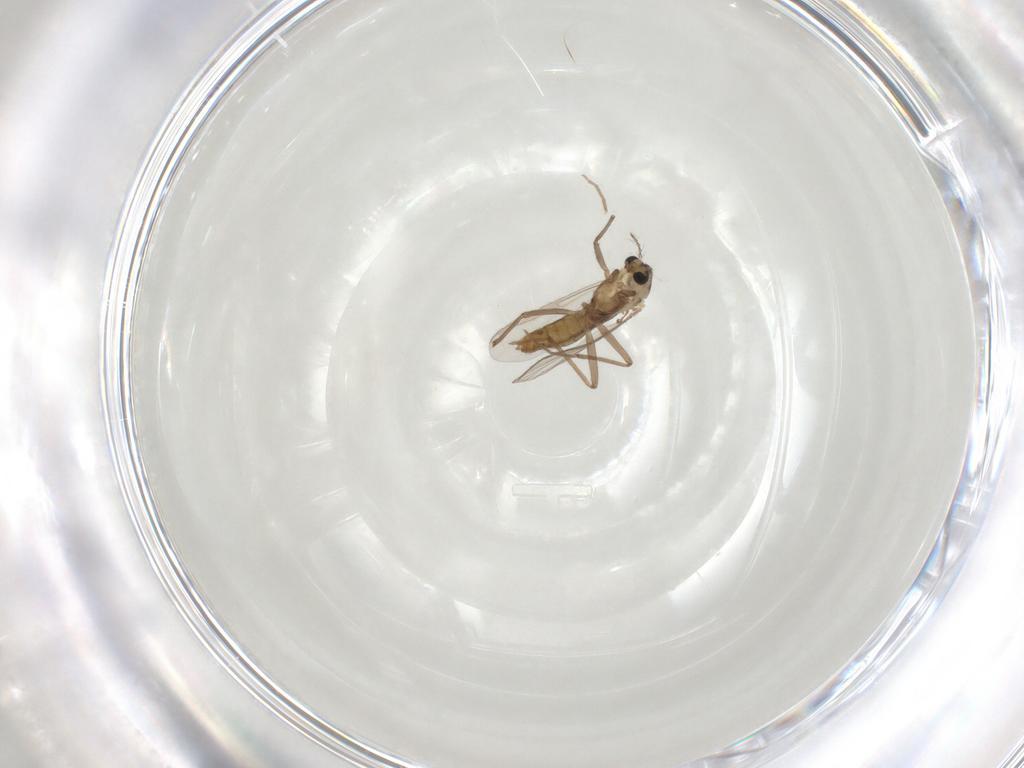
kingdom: Animalia
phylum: Arthropoda
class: Insecta
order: Diptera
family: Chironomidae
